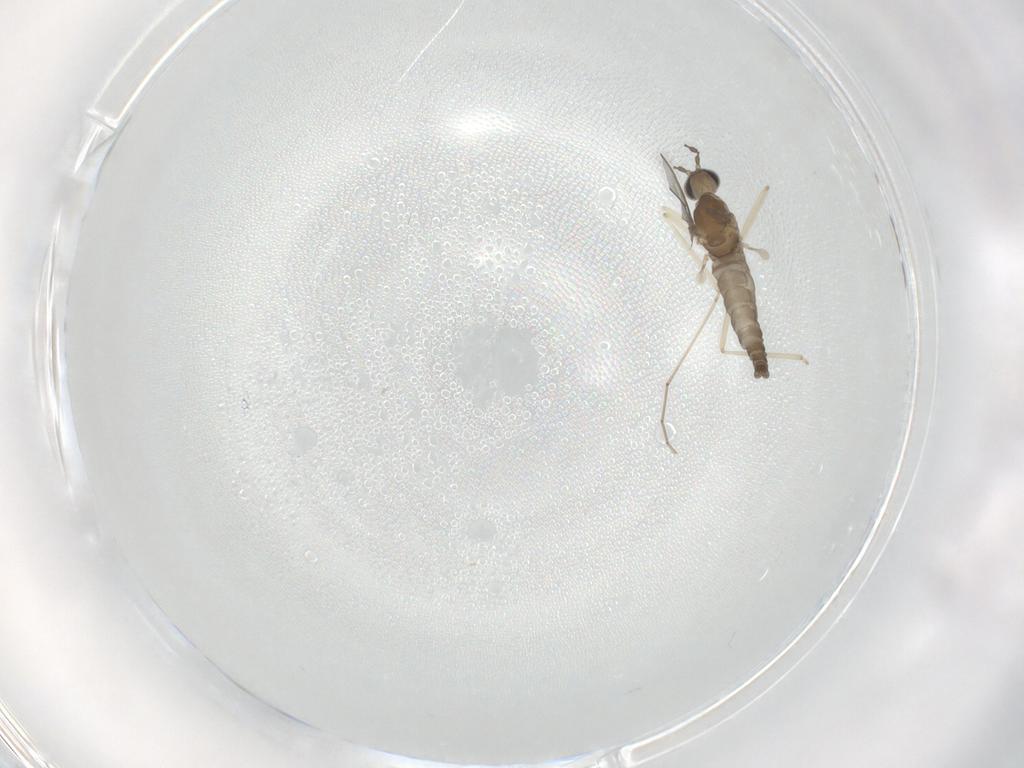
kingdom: Animalia
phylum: Arthropoda
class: Insecta
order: Diptera
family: Cecidomyiidae
